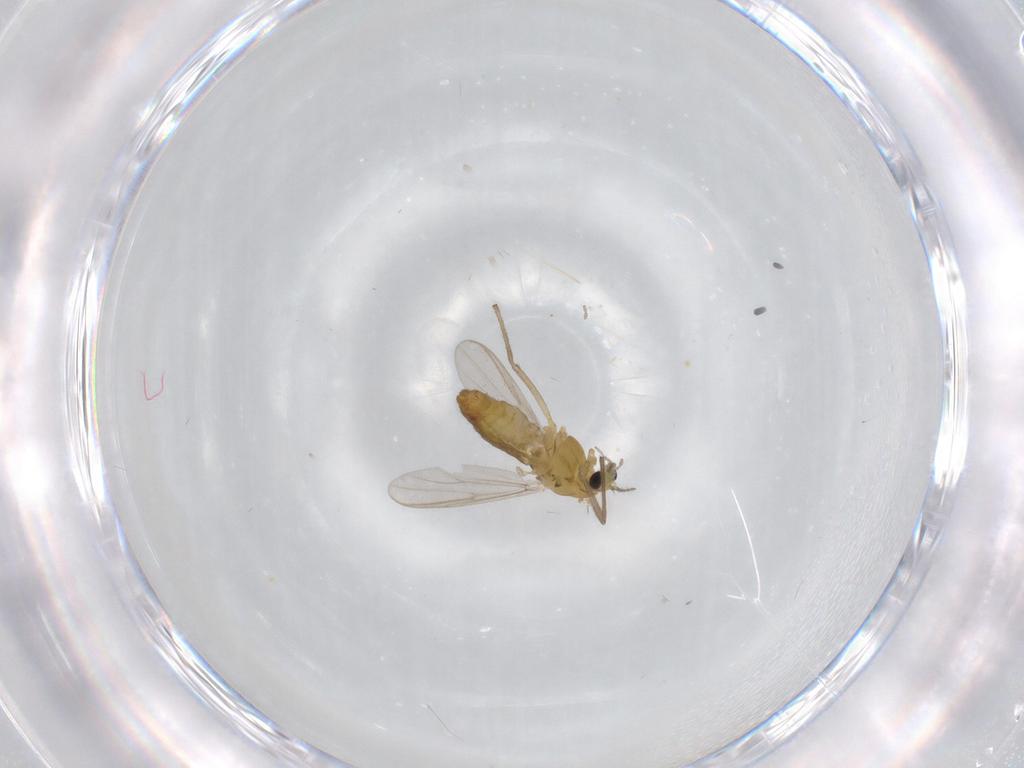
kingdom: Animalia
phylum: Arthropoda
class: Insecta
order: Diptera
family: Chironomidae
